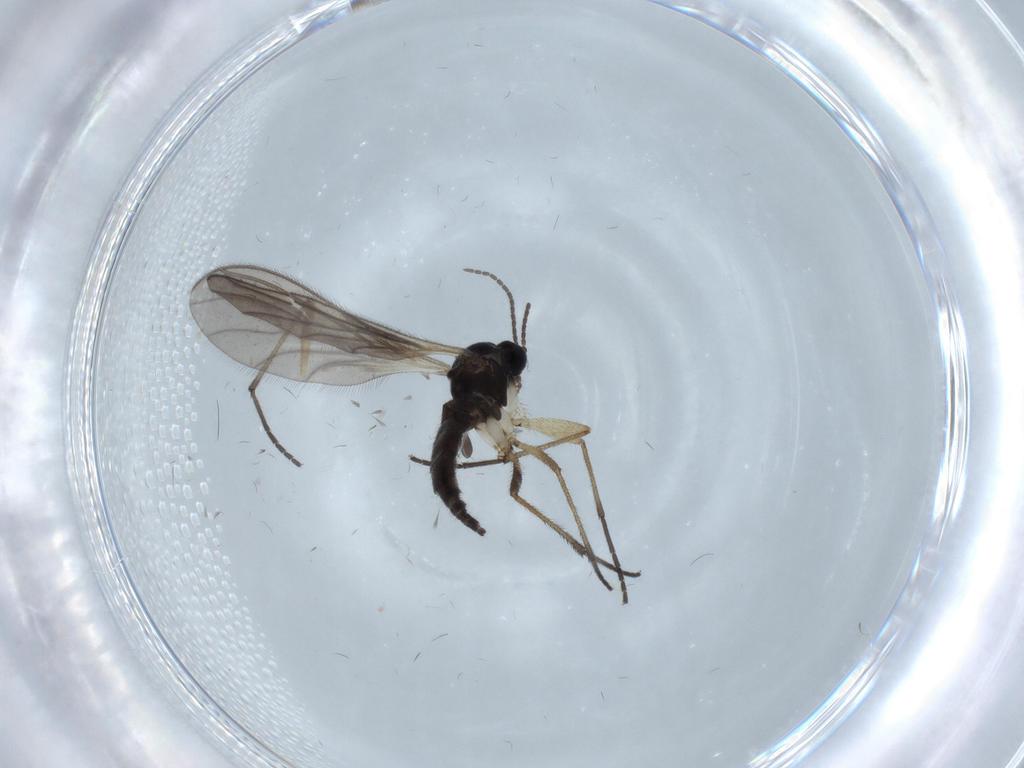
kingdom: Animalia
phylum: Arthropoda
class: Insecta
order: Diptera
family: Sciaridae
